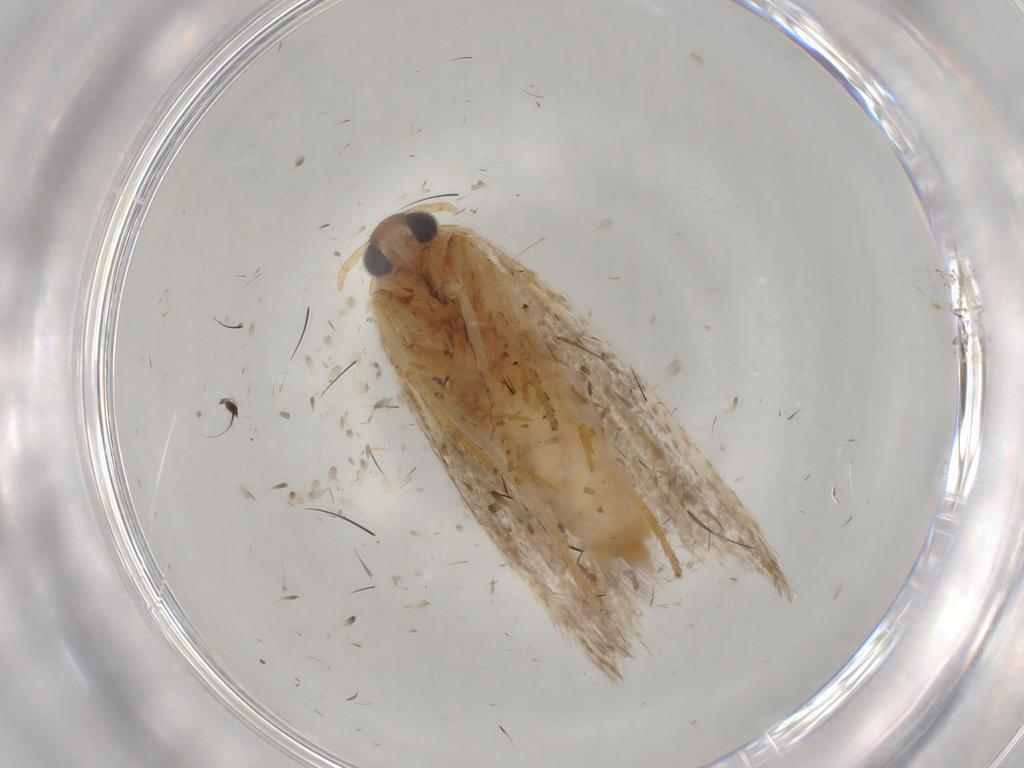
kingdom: Animalia
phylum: Arthropoda
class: Insecta
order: Lepidoptera
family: Blastobasidae
